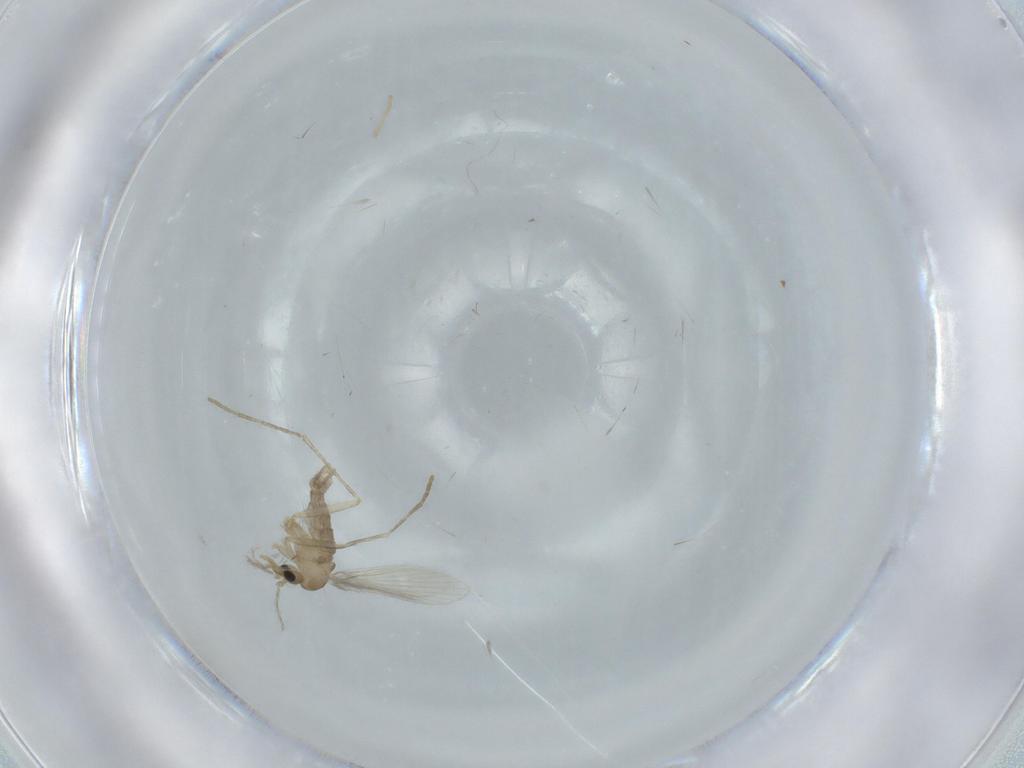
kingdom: Animalia
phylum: Arthropoda
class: Insecta
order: Diptera
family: Psychodidae
